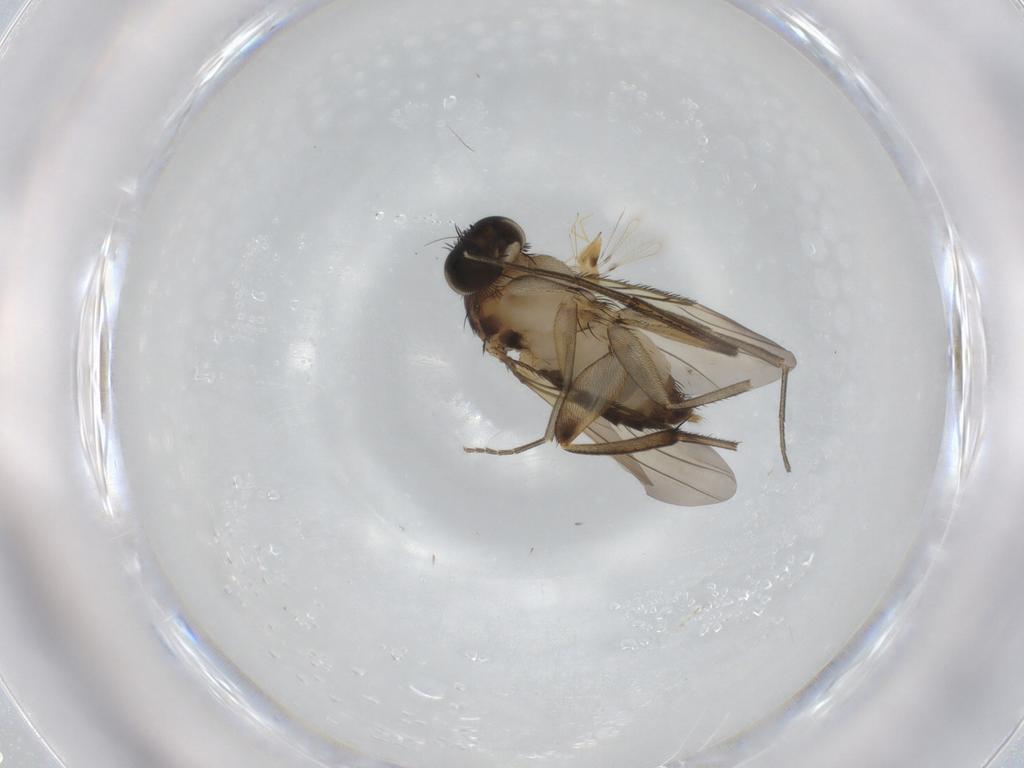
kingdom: Animalia
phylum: Arthropoda
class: Insecta
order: Diptera
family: Phoridae
